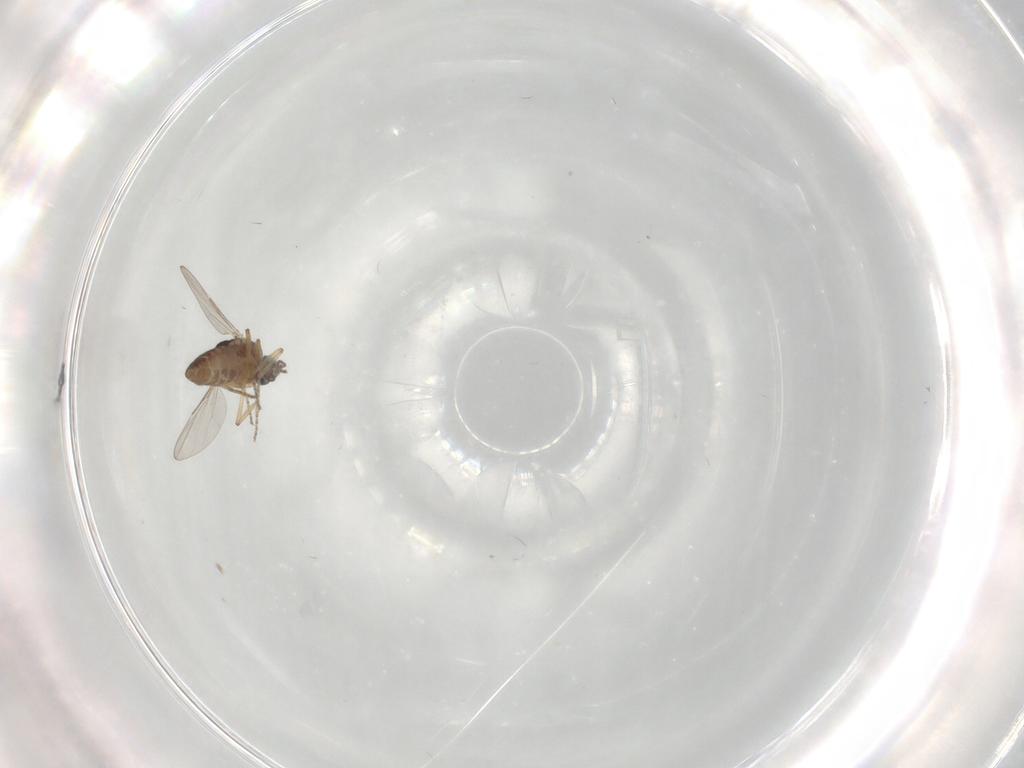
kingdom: Animalia
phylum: Arthropoda
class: Insecta
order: Diptera
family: Ceratopogonidae
